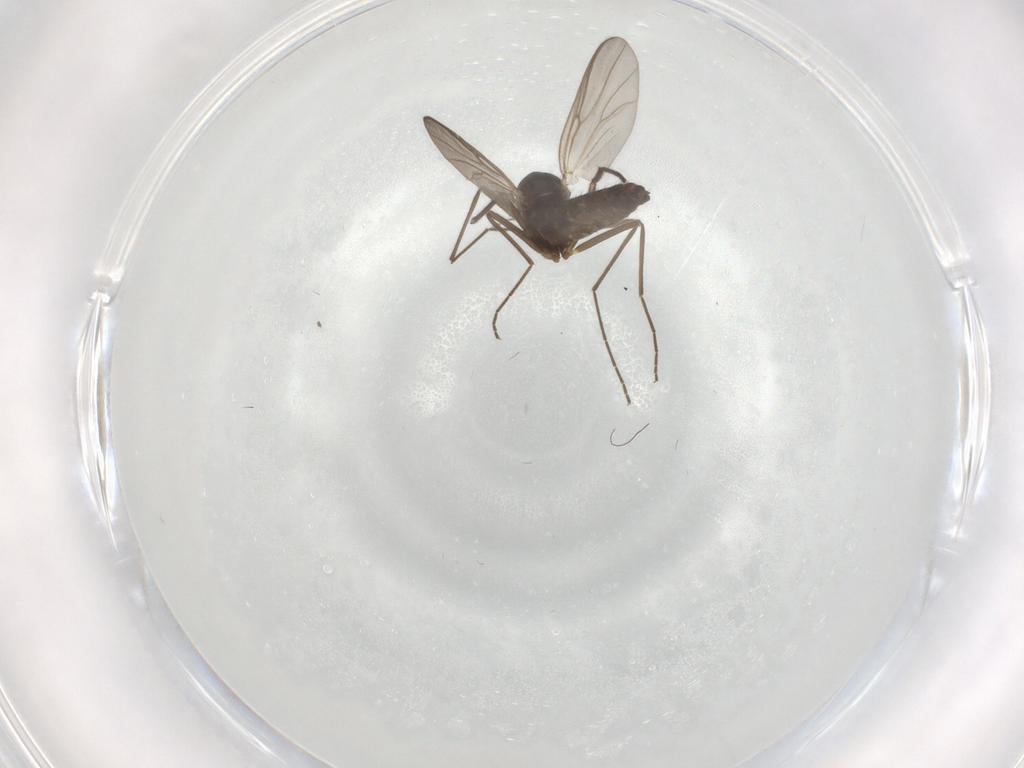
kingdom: Animalia
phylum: Arthropoda
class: Insecta
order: Diptera
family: Chironomidae
